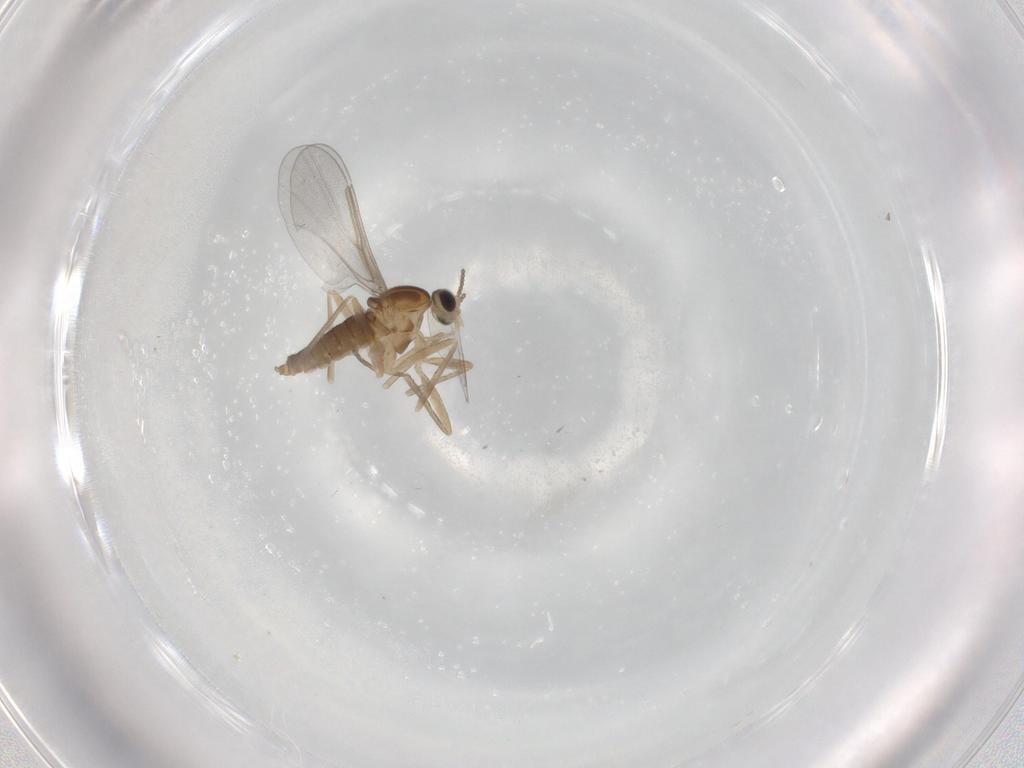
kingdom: Animalia
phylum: Arthropoda
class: Insecta
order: Diptera
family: Cecidomyiidae
